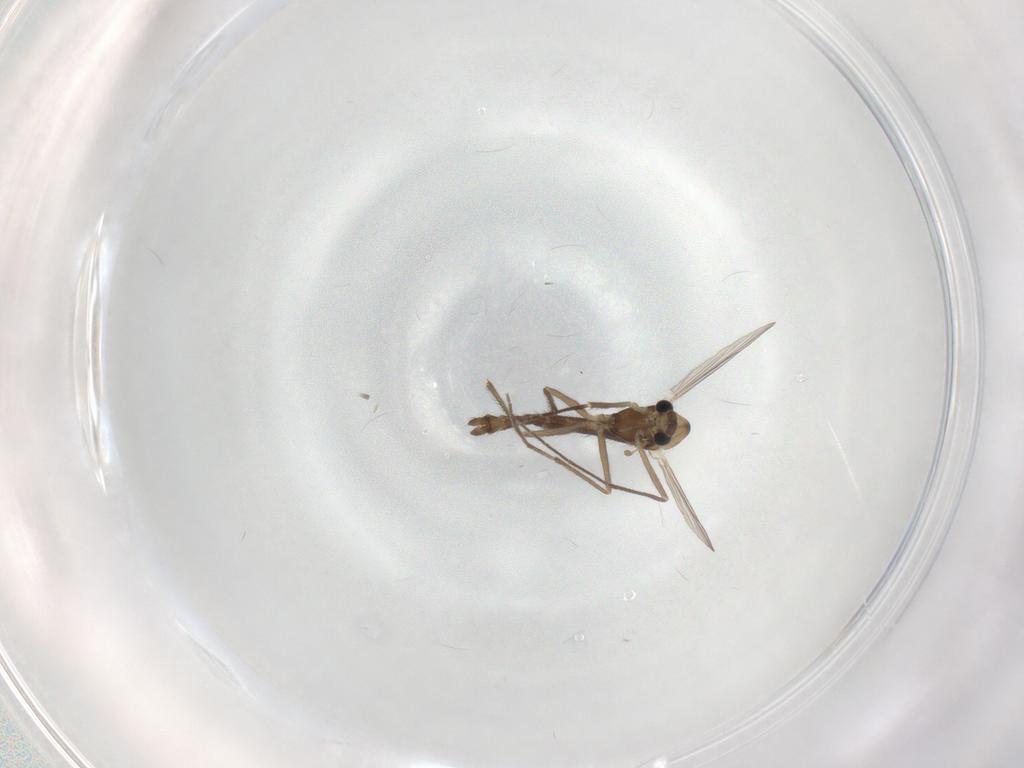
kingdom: Animalia
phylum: Arthropoda
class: Insecta
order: Diptera
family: Chironomidae
